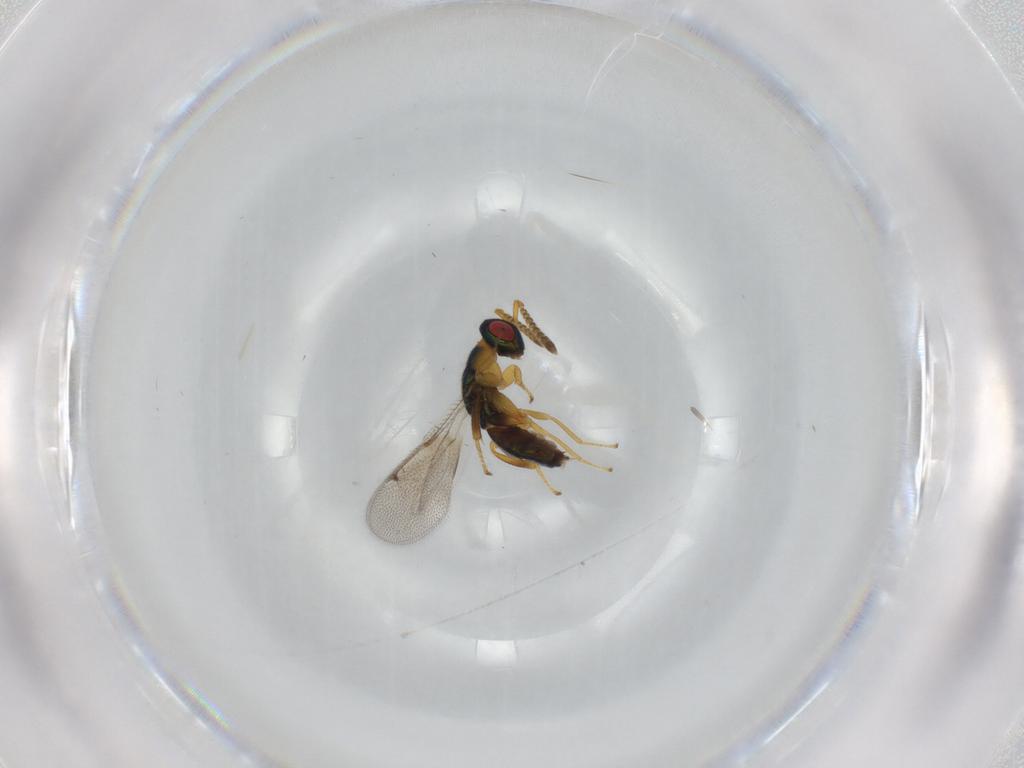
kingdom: Animalia
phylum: Arthropoda
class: Insecta
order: Hymenoptera
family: Torymidae
